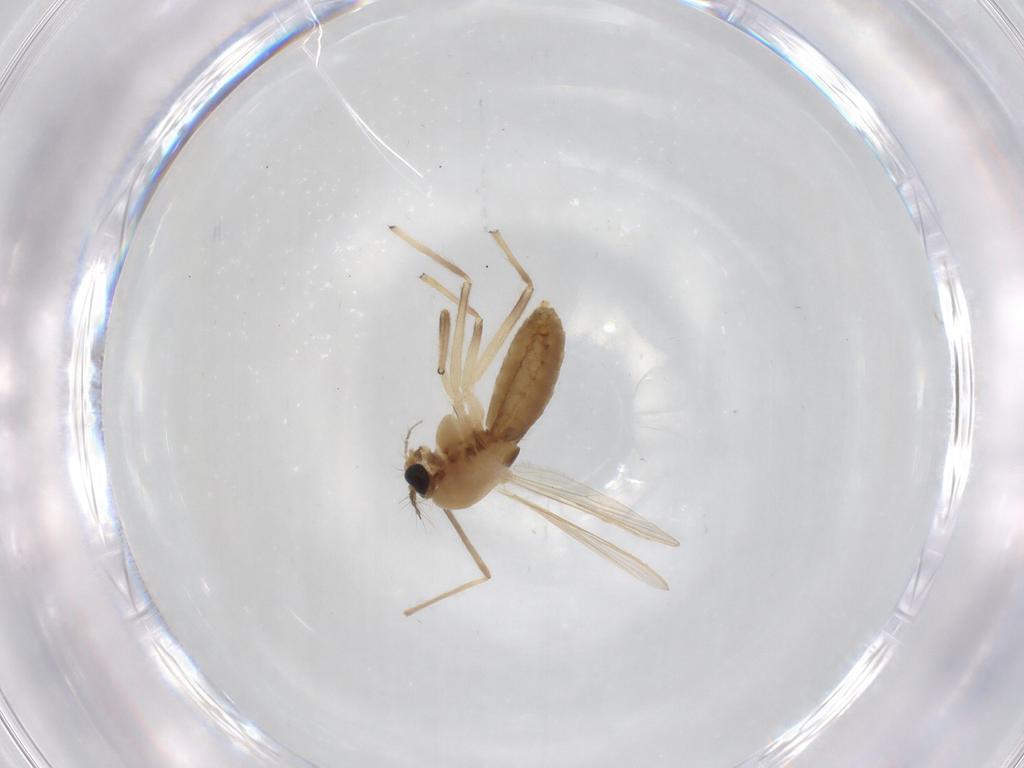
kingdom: Animalia
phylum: Arthropoda
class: Insecta
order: Diptera
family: Chironomidae
